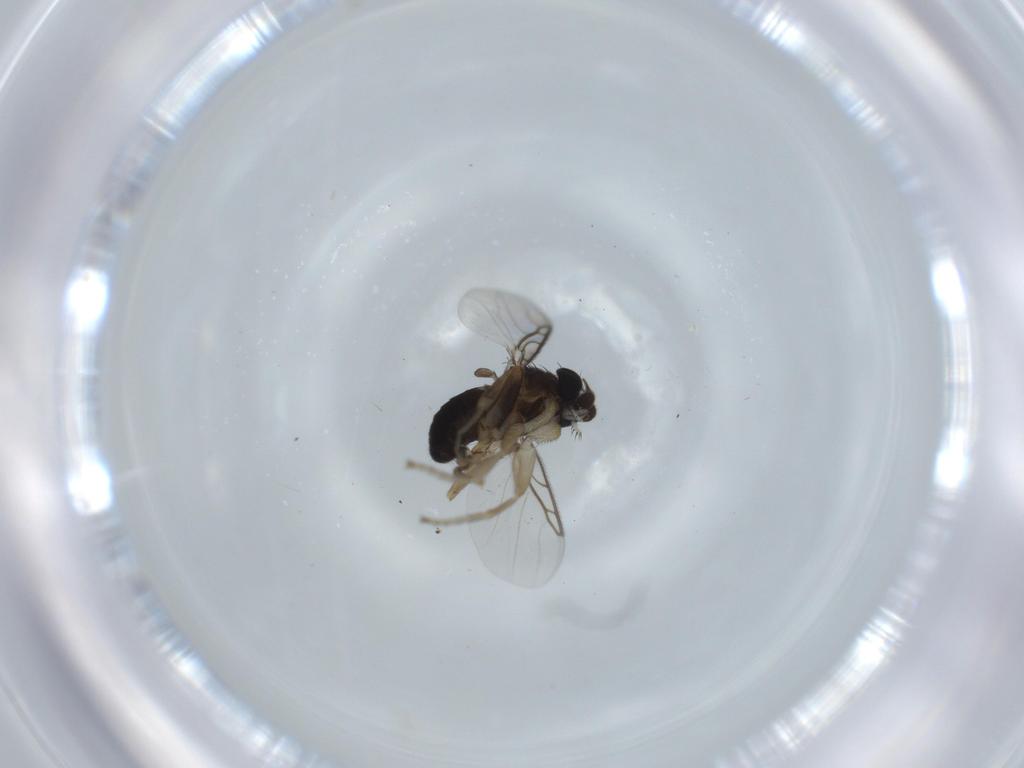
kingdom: Animalia
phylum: Arthropoda
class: Insecta
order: Diptera
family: Phoridae
